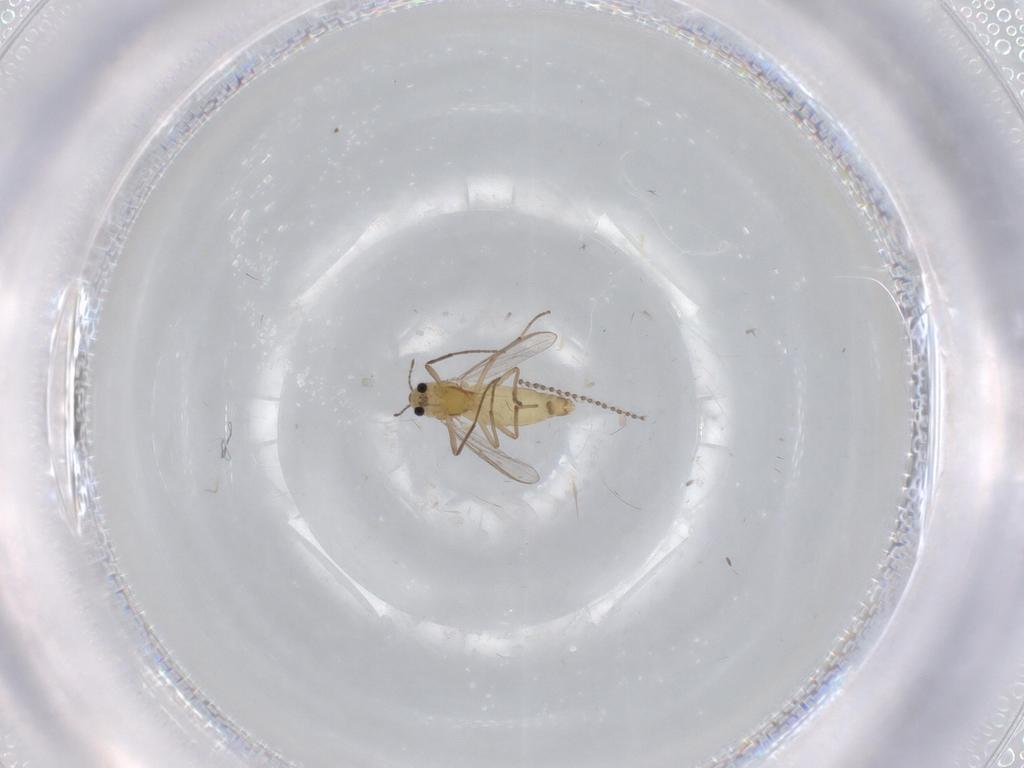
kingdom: Animalia
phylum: Arthropoda
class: Insecta
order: Diptera
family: Chironomidae
